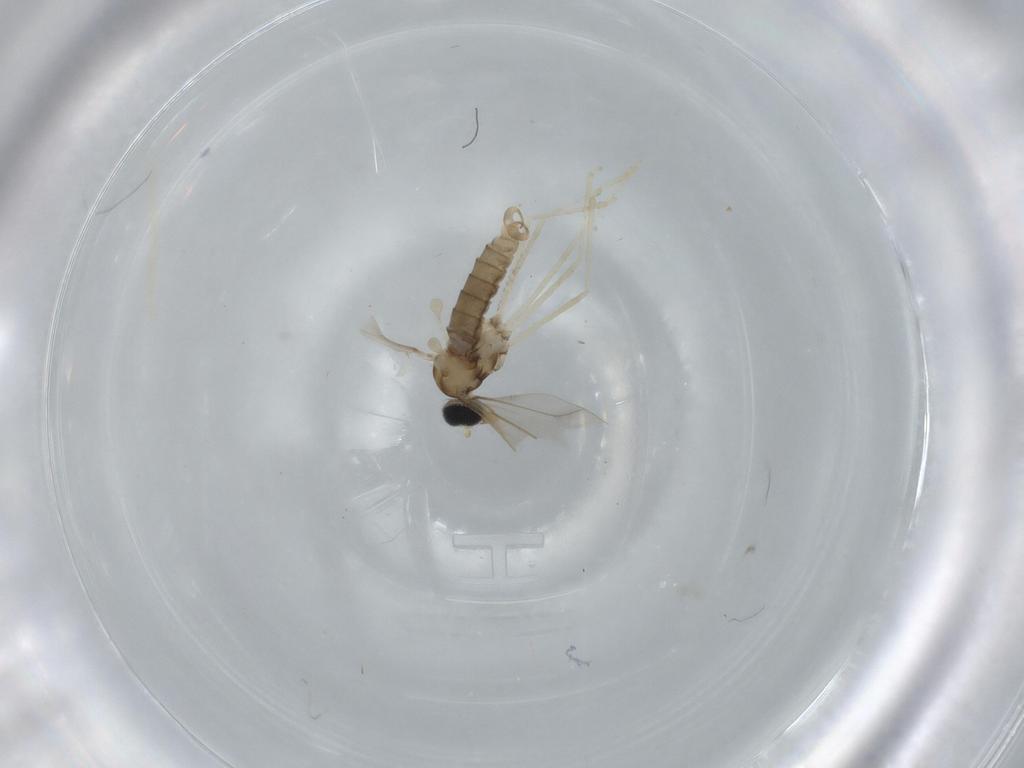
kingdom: Animalia
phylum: Arthropoda
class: Insecta
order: Diptera
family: Cecidomyiidae
